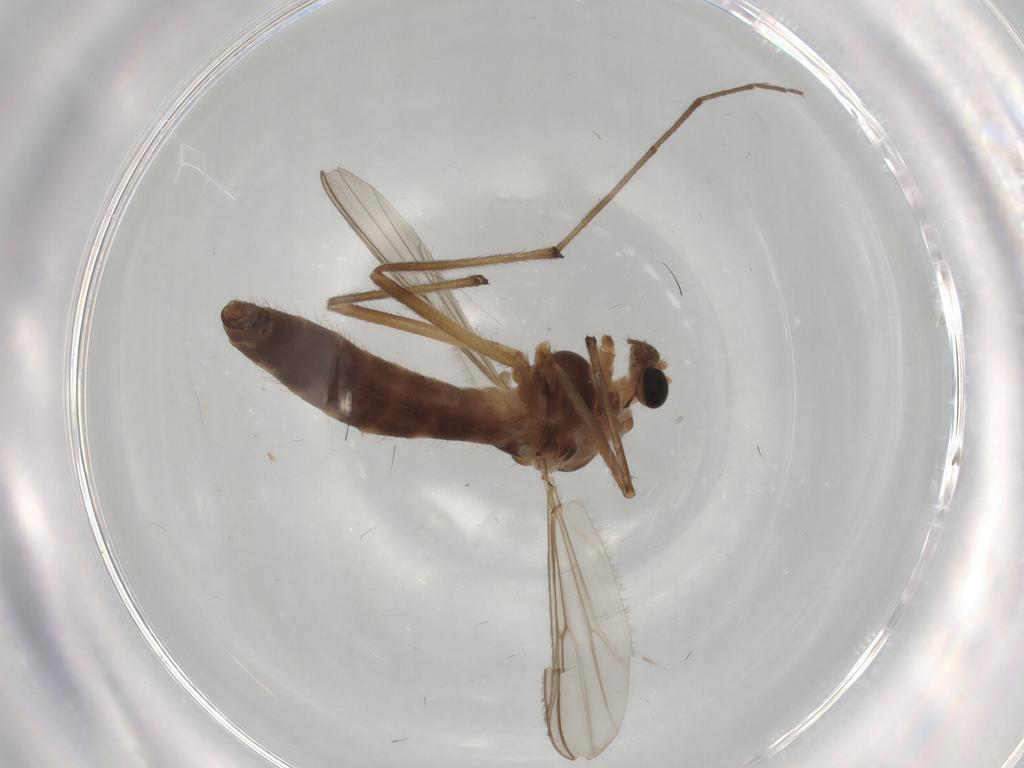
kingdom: Animalia
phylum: Arthropoda
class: Insecta
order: Diptera
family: Chironomidae
